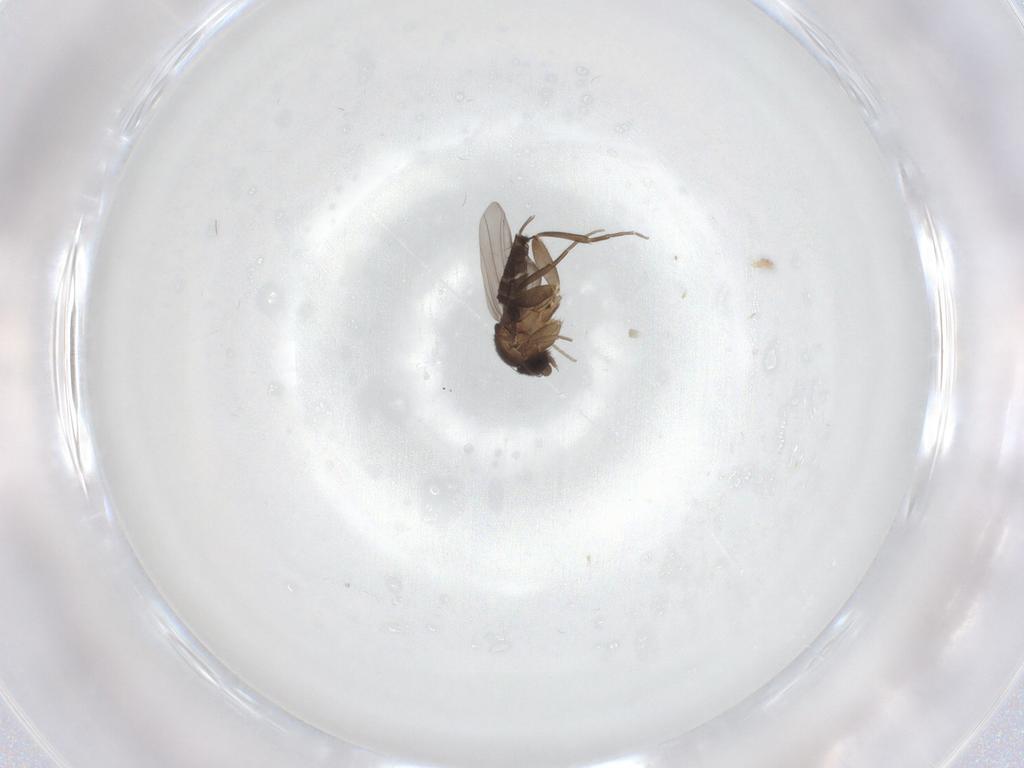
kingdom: Animalia
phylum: Arthropoda
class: Insecta
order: Diptera
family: Phoridae
